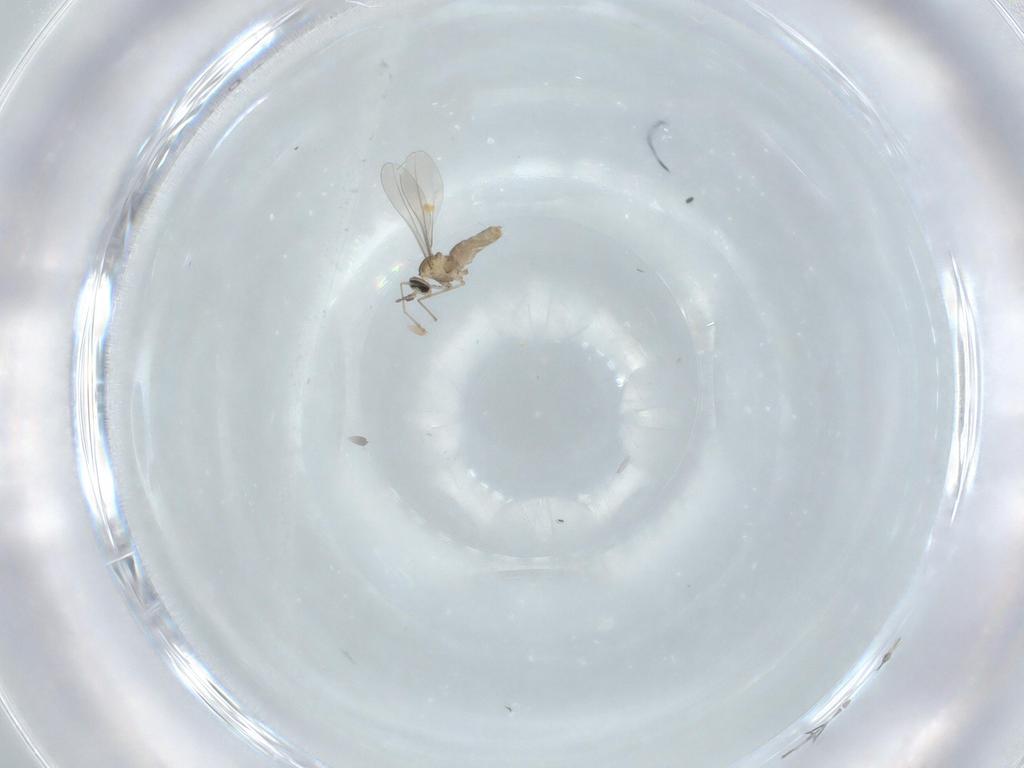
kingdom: Animalia
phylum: Arthropoda
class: Insecta
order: Diptera
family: Cecidomyiidae
